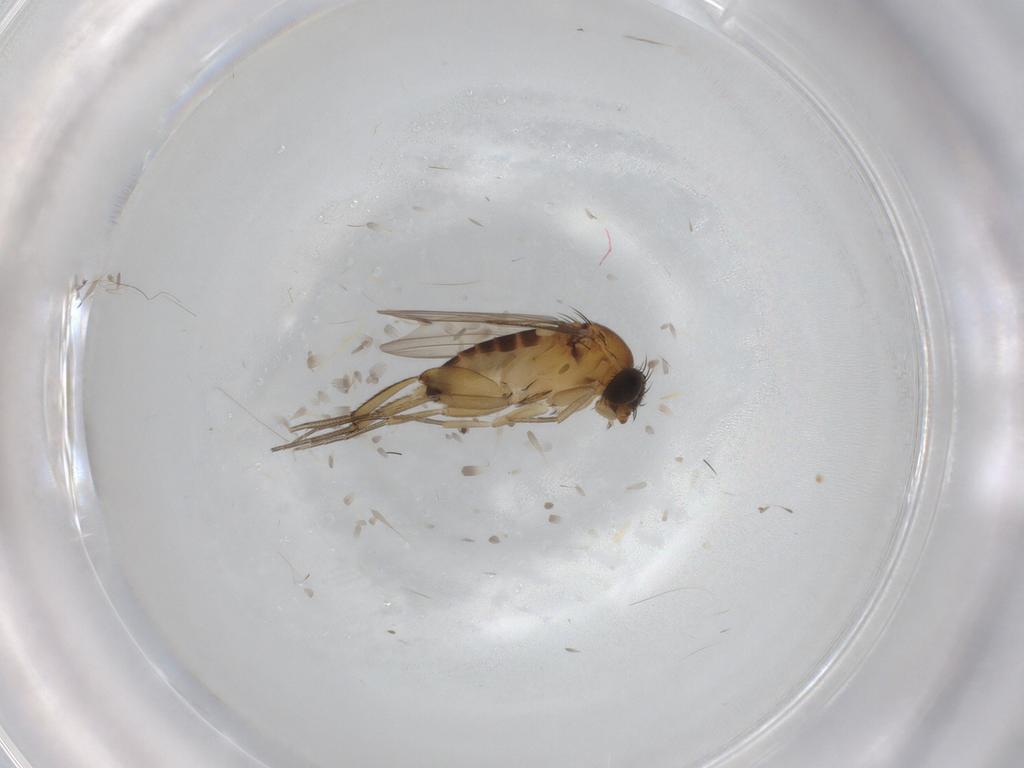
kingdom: Animalia
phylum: Arthropoda
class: Insecta
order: Diptera
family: Phoridae
